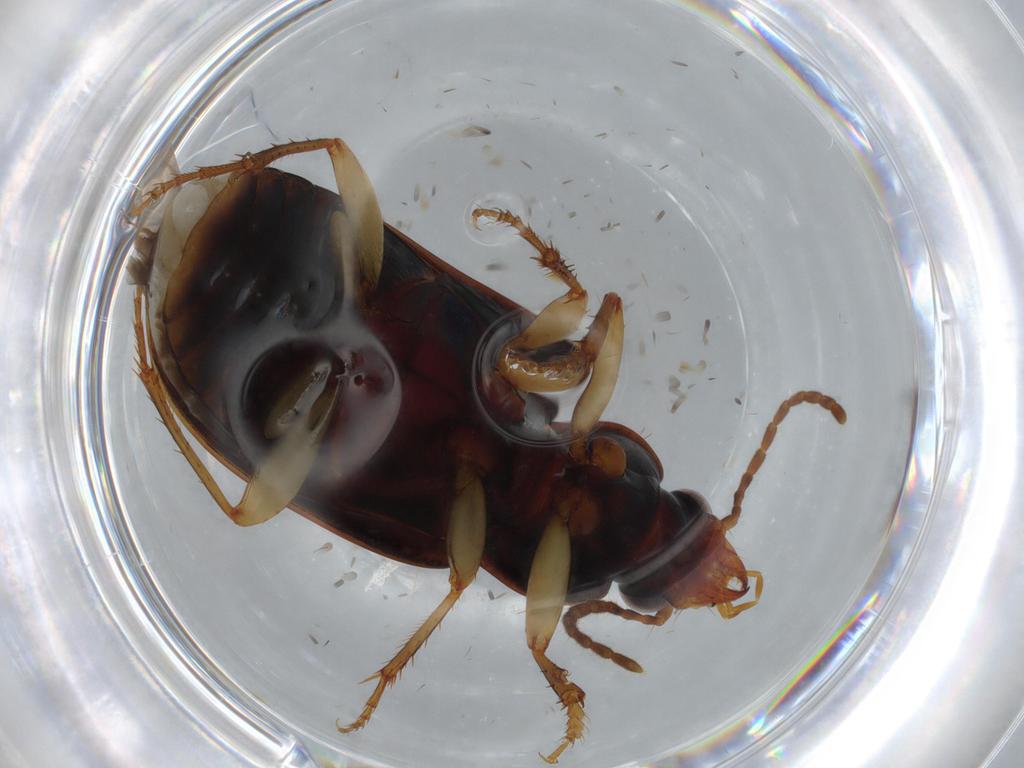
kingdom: Animalia
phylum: Arthropoda
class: Insecta
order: Coleoptera
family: Carabidae
